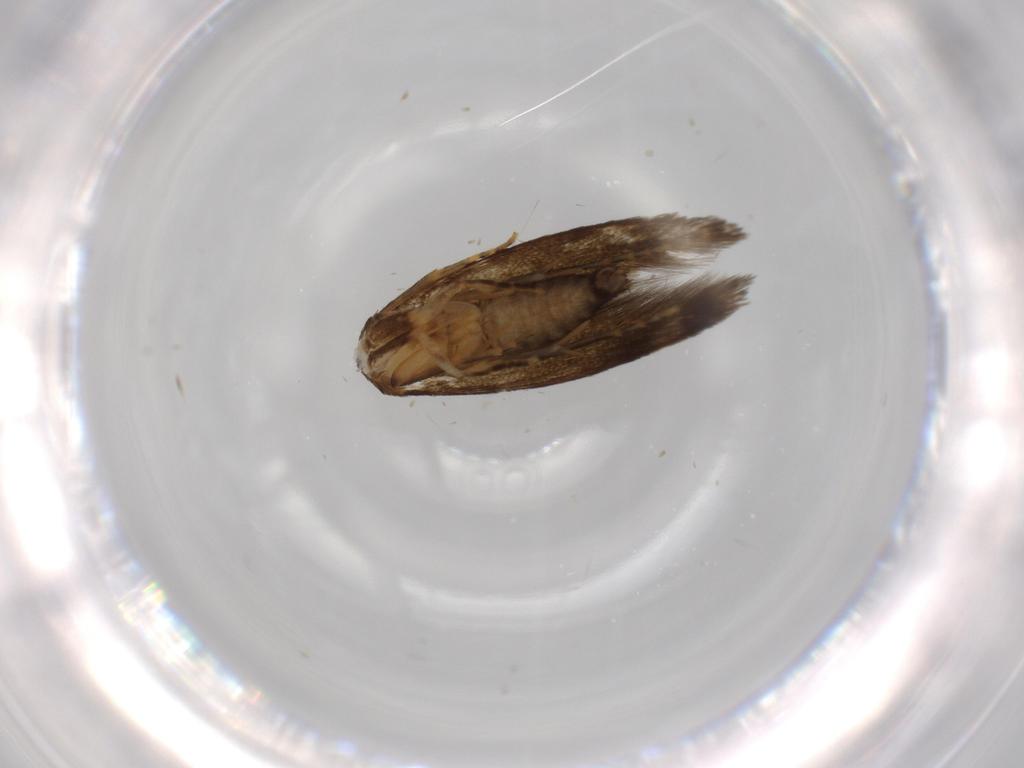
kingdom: Animalia
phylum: Arthropoda
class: Insecta
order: Lepidoptera
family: Tineidae
